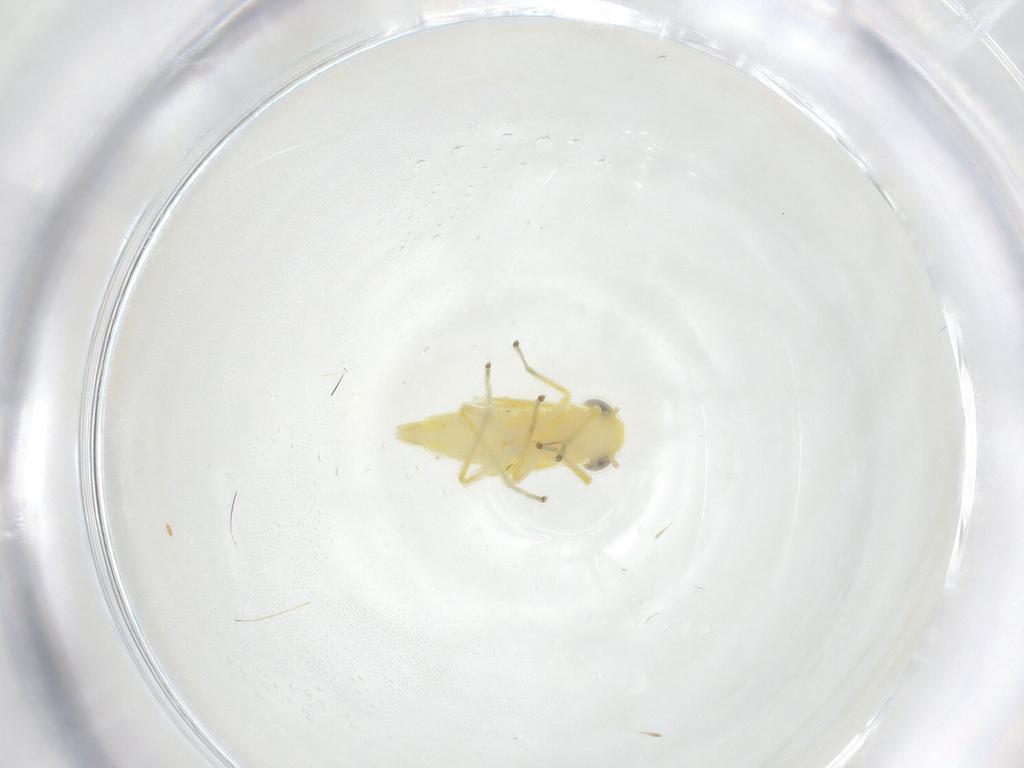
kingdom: Animalia
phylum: Arthropoda
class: Insecta
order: Hemiptera
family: Cicadellidae
